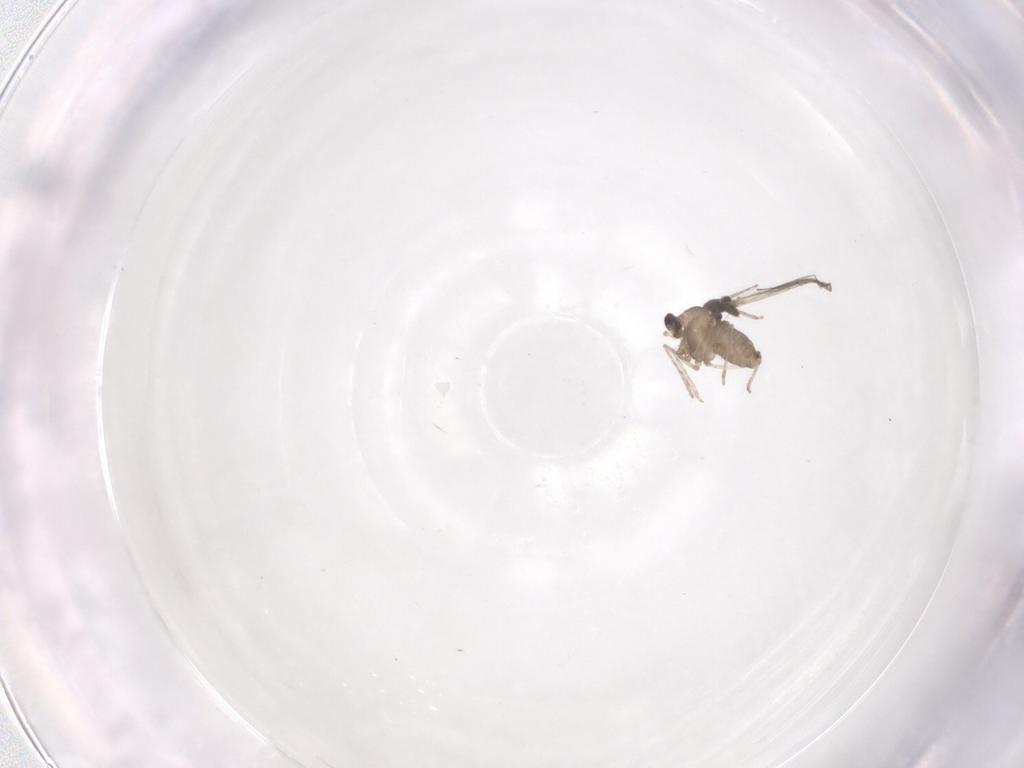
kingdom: Animalia
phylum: Arthropoda
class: Insecta
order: Diptera
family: Cecidomyiidae
